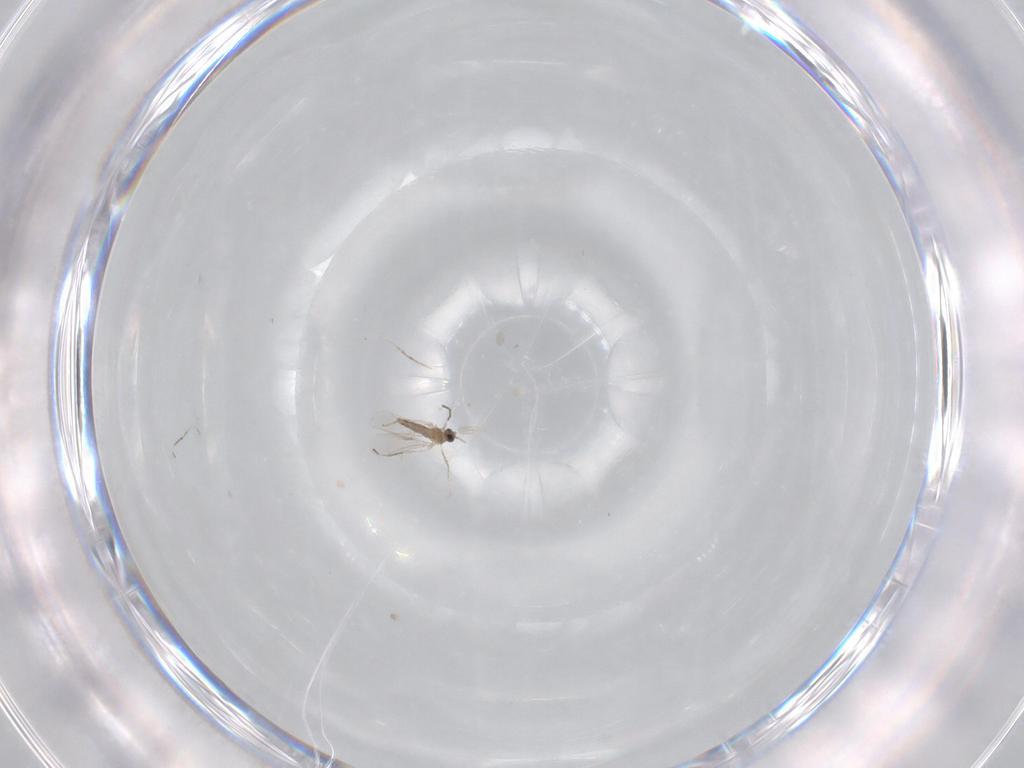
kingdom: Animalia
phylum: Arthropoda
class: Insecta
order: Diptera
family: Cecidomyiidae
